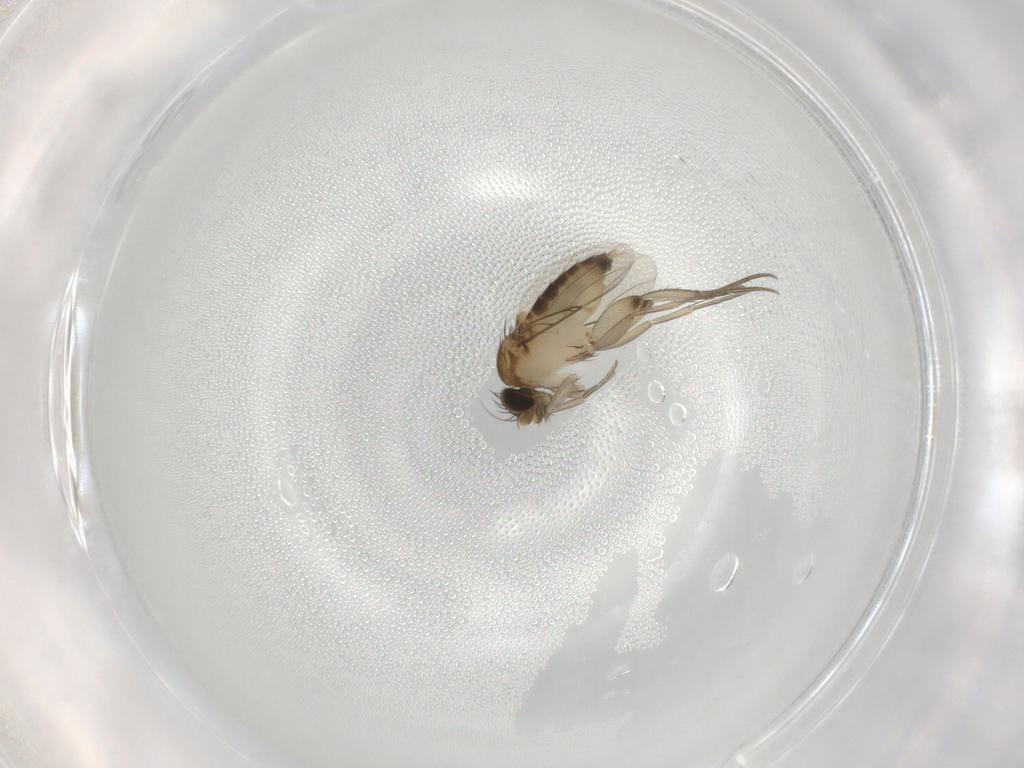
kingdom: Animalia
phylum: Arthropoda
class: Insecta
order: Diptera
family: Phoridae
